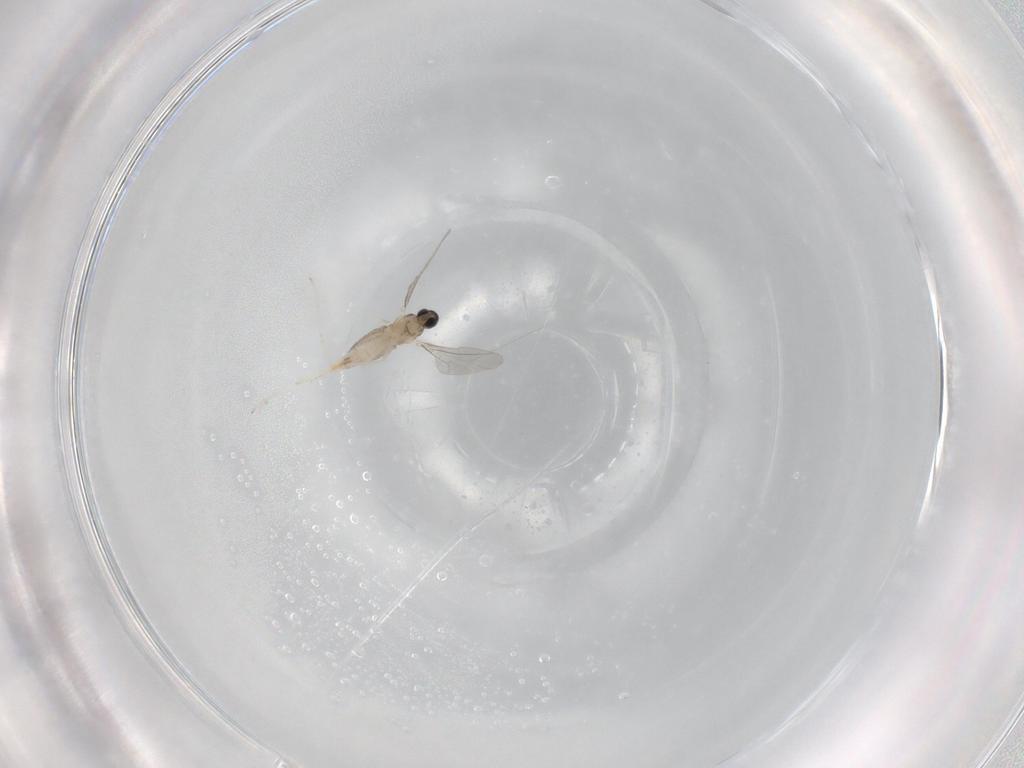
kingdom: Animalia
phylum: Arthropoda
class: Insecta
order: Diptera
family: Cecidomyiidae
